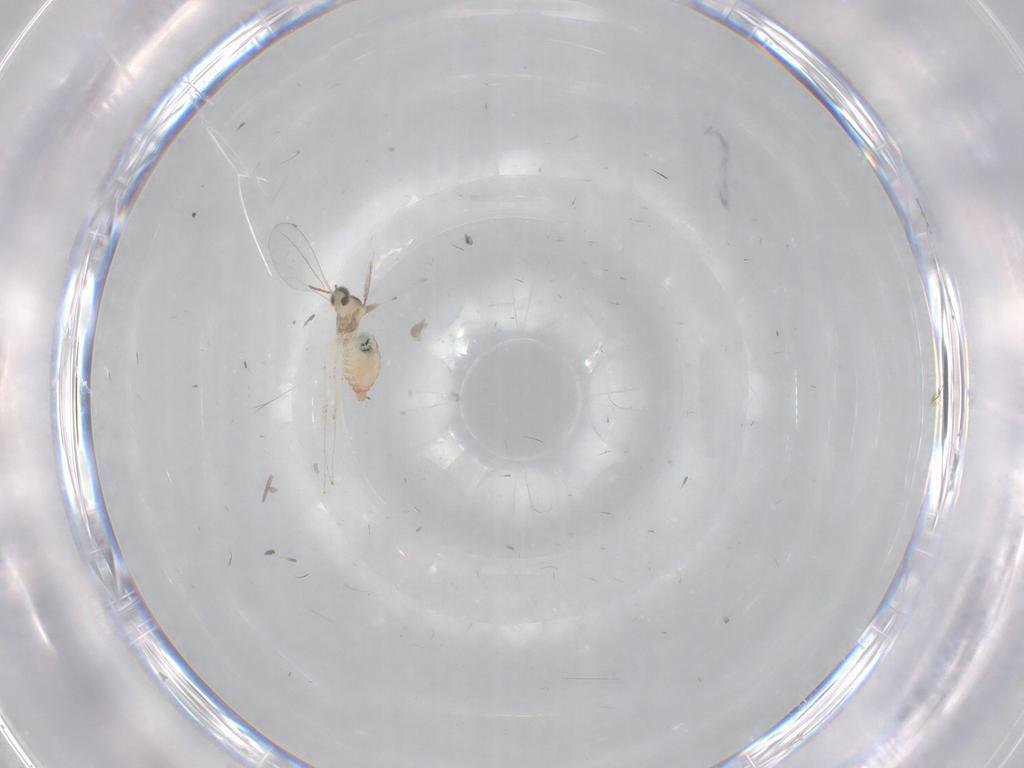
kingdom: Animalia
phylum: Arthropoda
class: Insecta
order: Diptera
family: Cecidomyiidae
